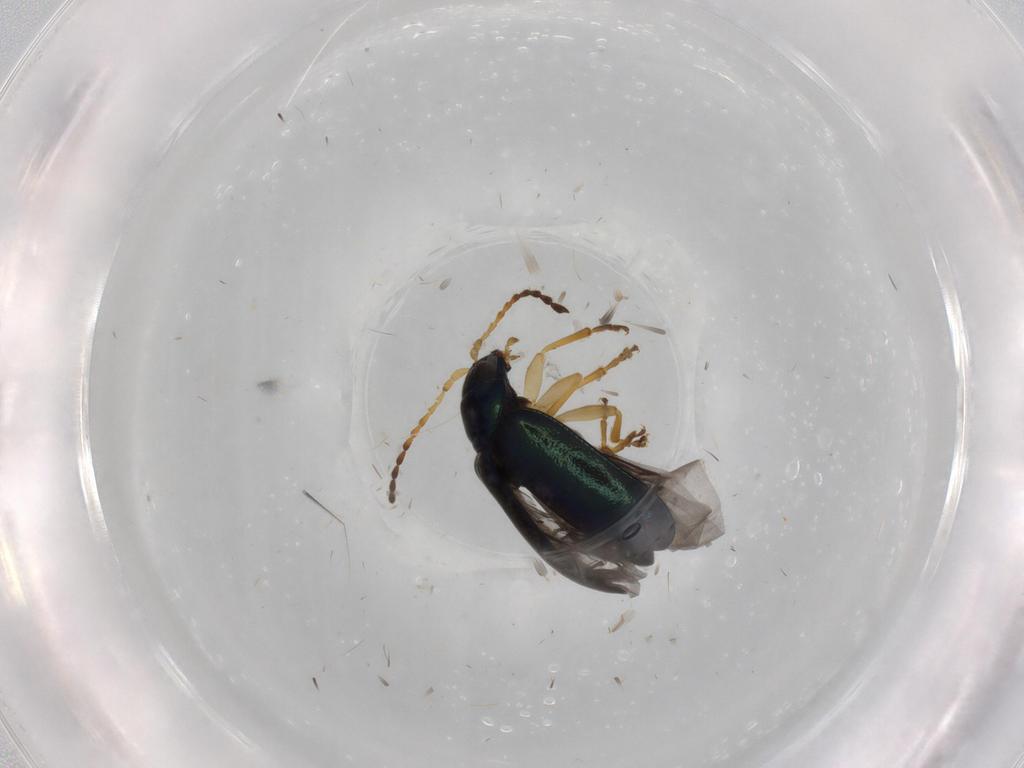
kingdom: Animalia
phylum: Arthropoda
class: Insecta
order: Coleoptera
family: Chrysomelidae
